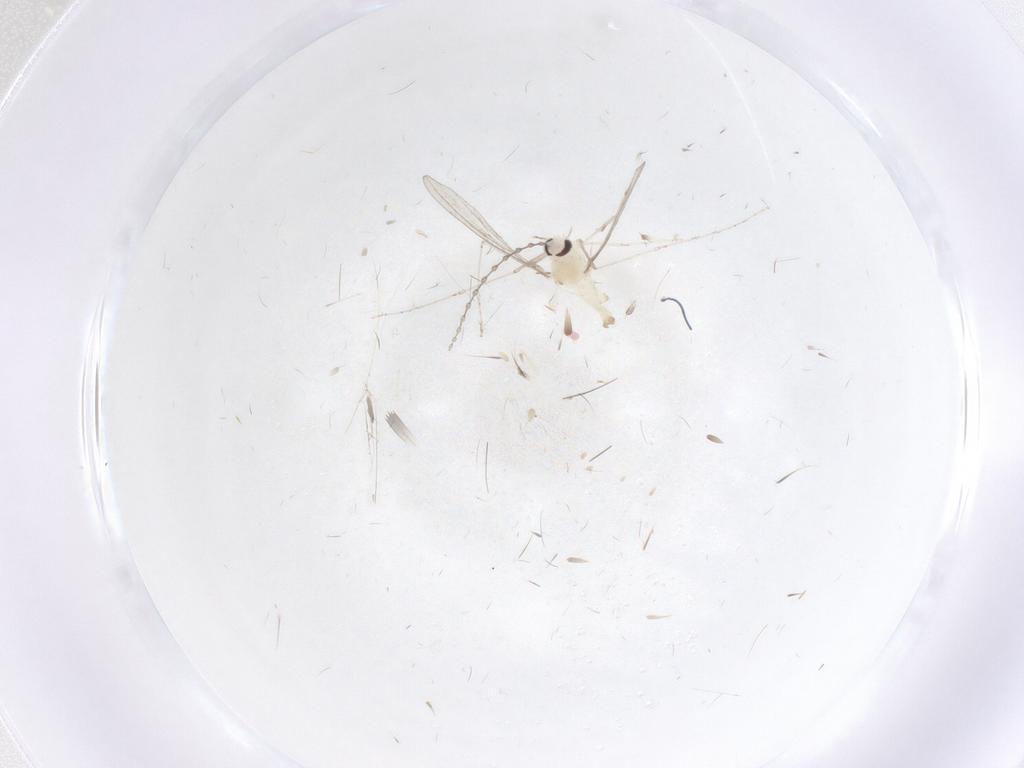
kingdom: Animalia
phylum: Arthropoda
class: Insecta
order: Diptera
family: Cecidomyiidae
